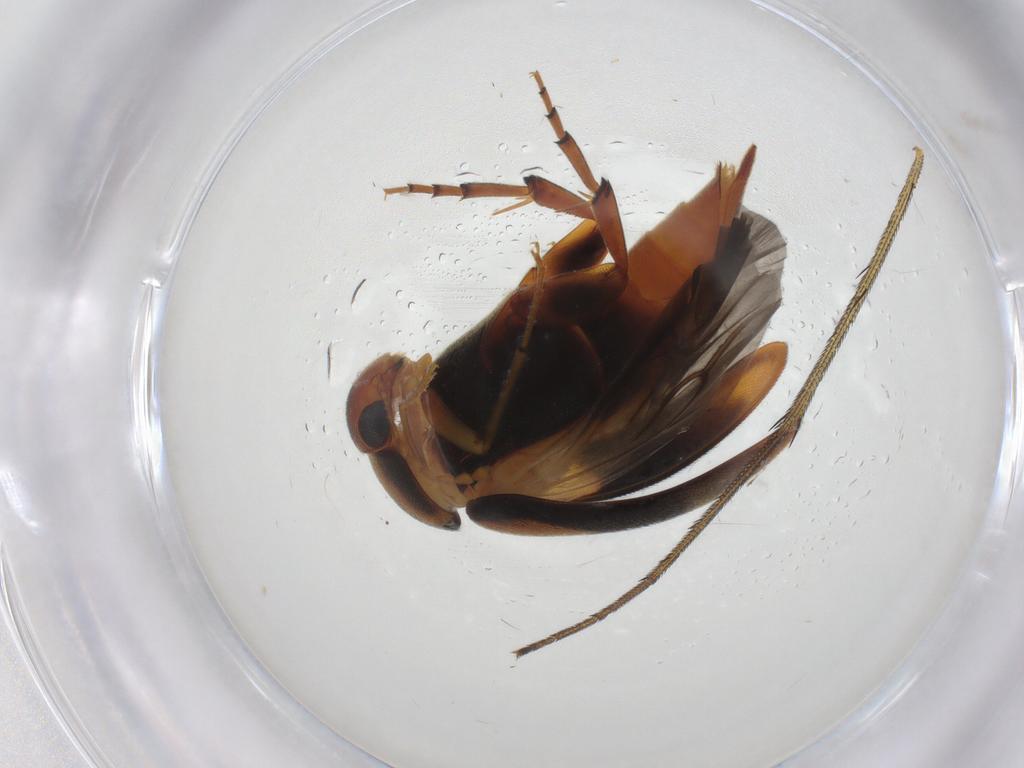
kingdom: Animalia
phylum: Arthropoda
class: Insecta
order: Coleoptera
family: Mordellidae
